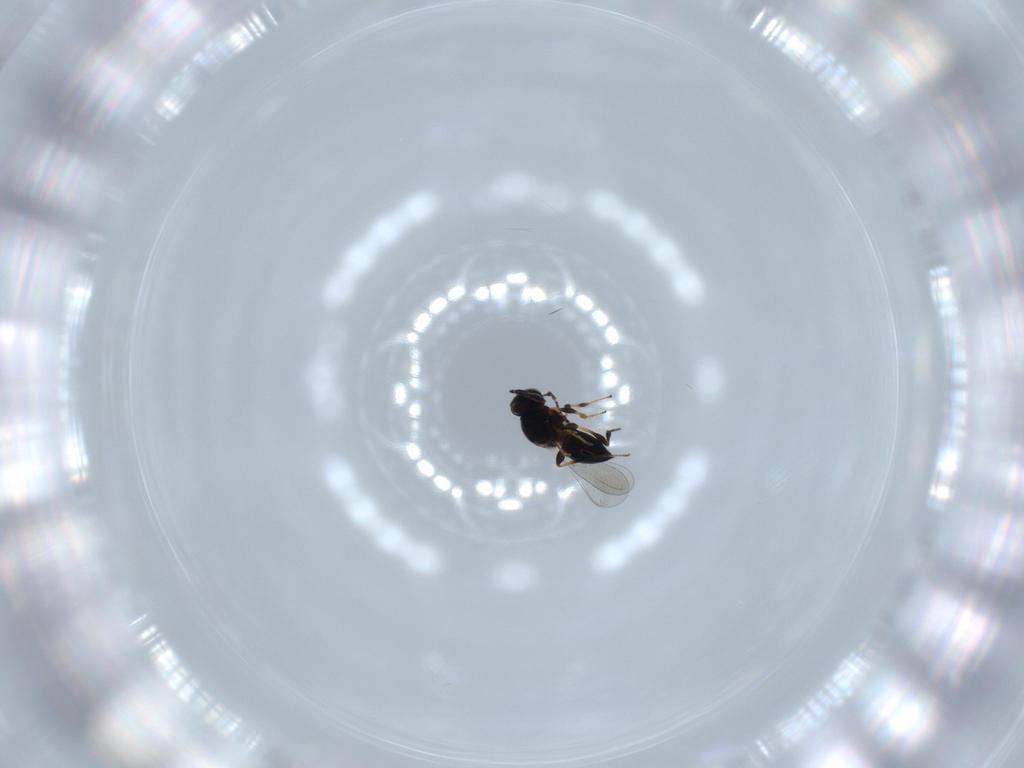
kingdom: Animalia
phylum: Arthropoda
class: Insecta
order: Hymenoptera
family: Platygastridae
